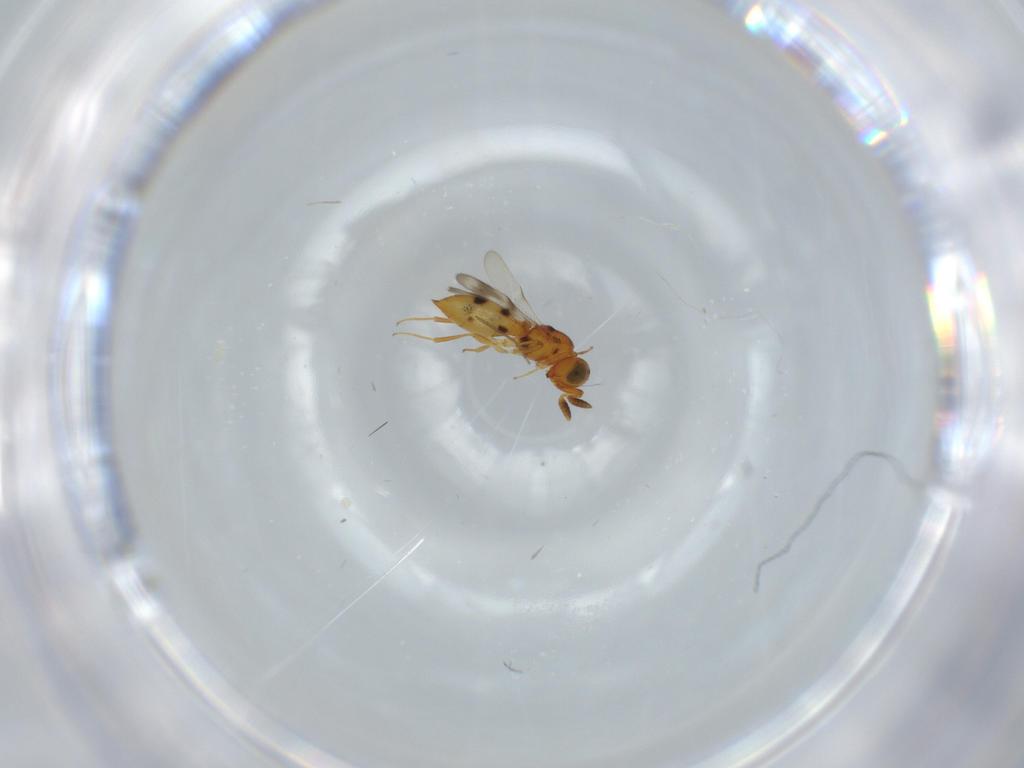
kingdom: Animalia
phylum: Arthropoda
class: Insecta
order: Hymenoptera
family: Scelionidae
